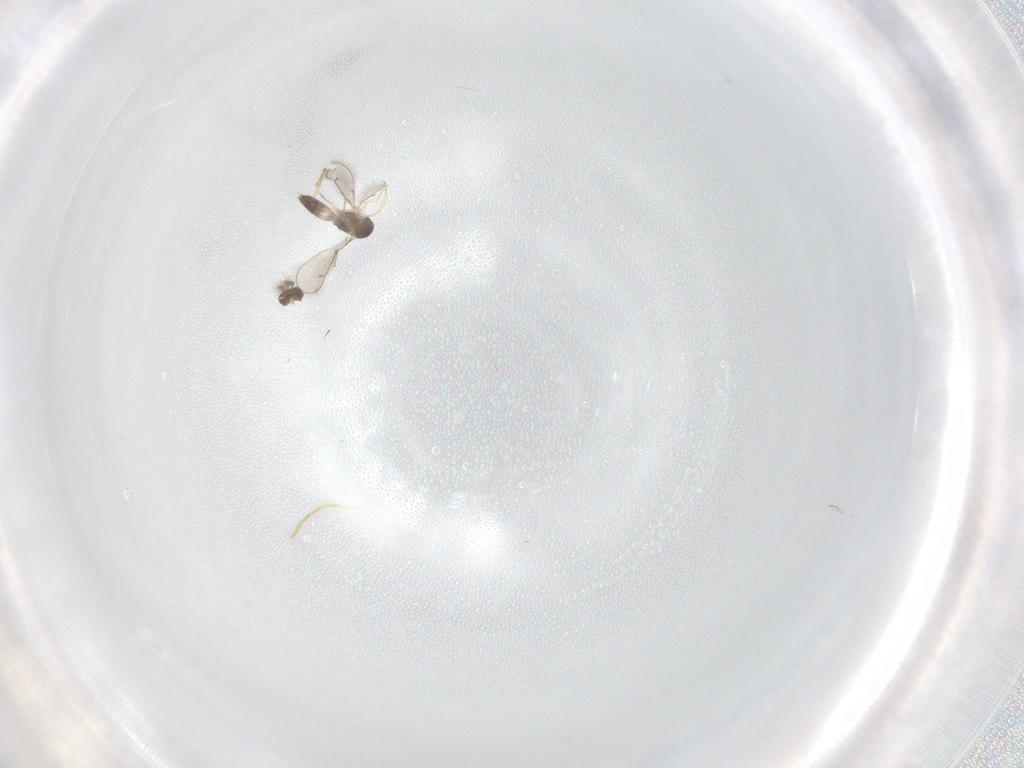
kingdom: Animalia
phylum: Arthropoda
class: Insecta
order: Hymenoptera
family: Eulophidae
